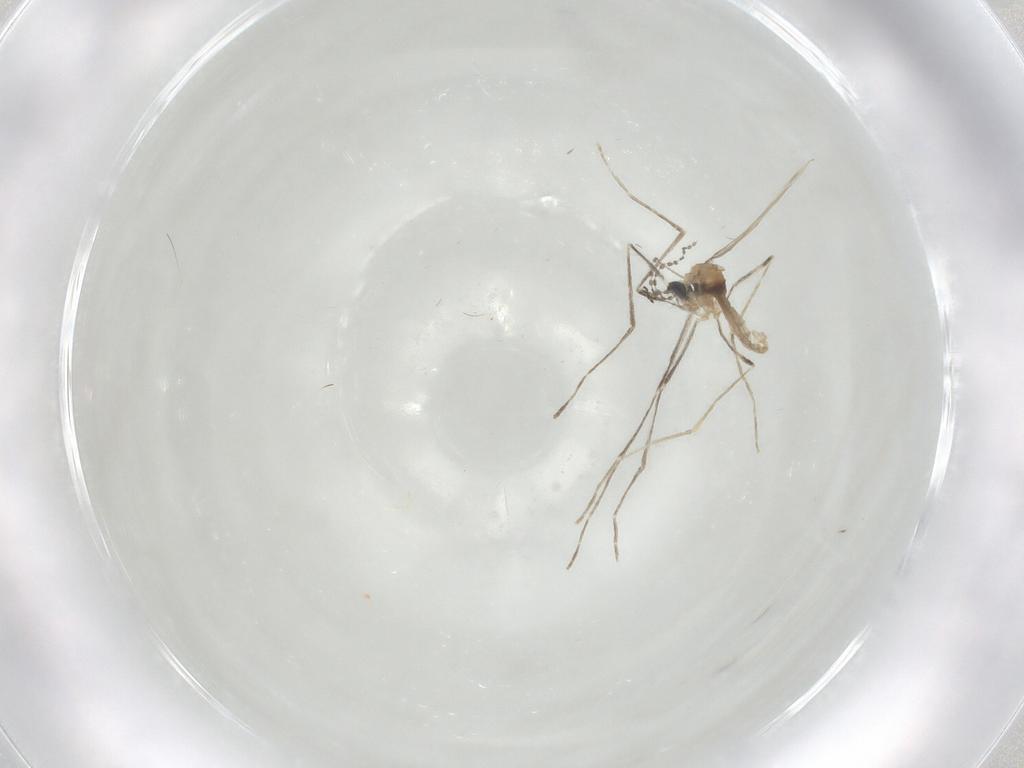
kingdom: Animalia
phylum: Arthropoda
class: Insecta
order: Diptera
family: Cecidomyiidae
